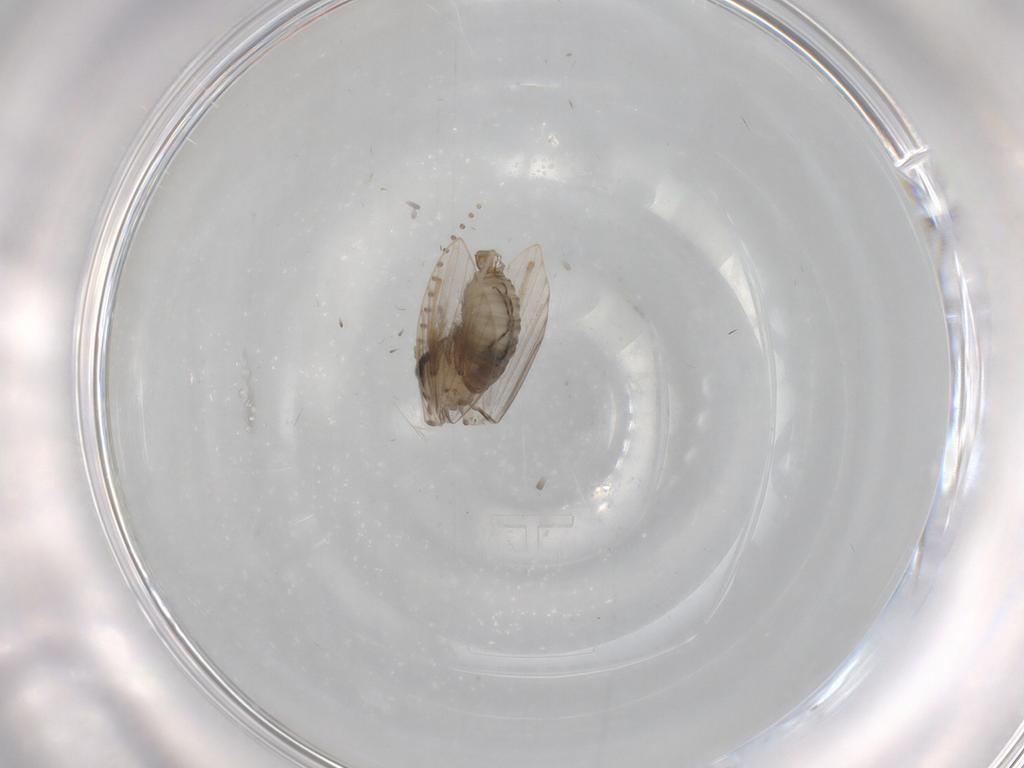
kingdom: Animalia
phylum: Arthropoda
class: Insecta
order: Diptera
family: Psychodidae
